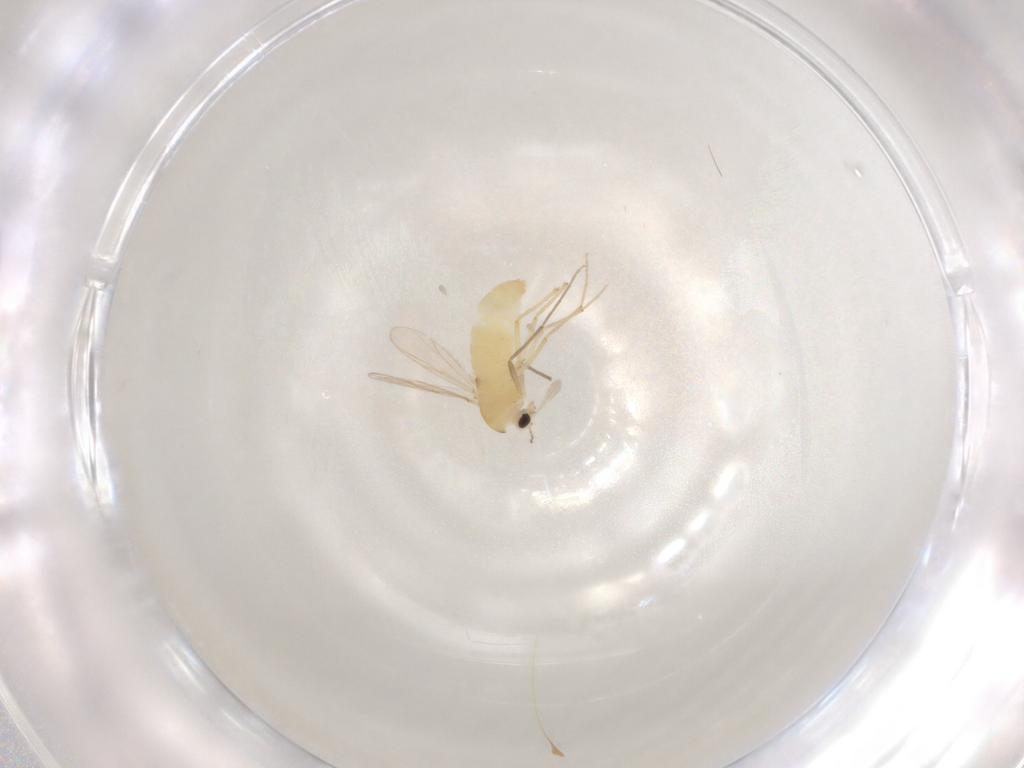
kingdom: Animalia
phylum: Arthropoda
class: Insecta
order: Diptera
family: Chironomidae
